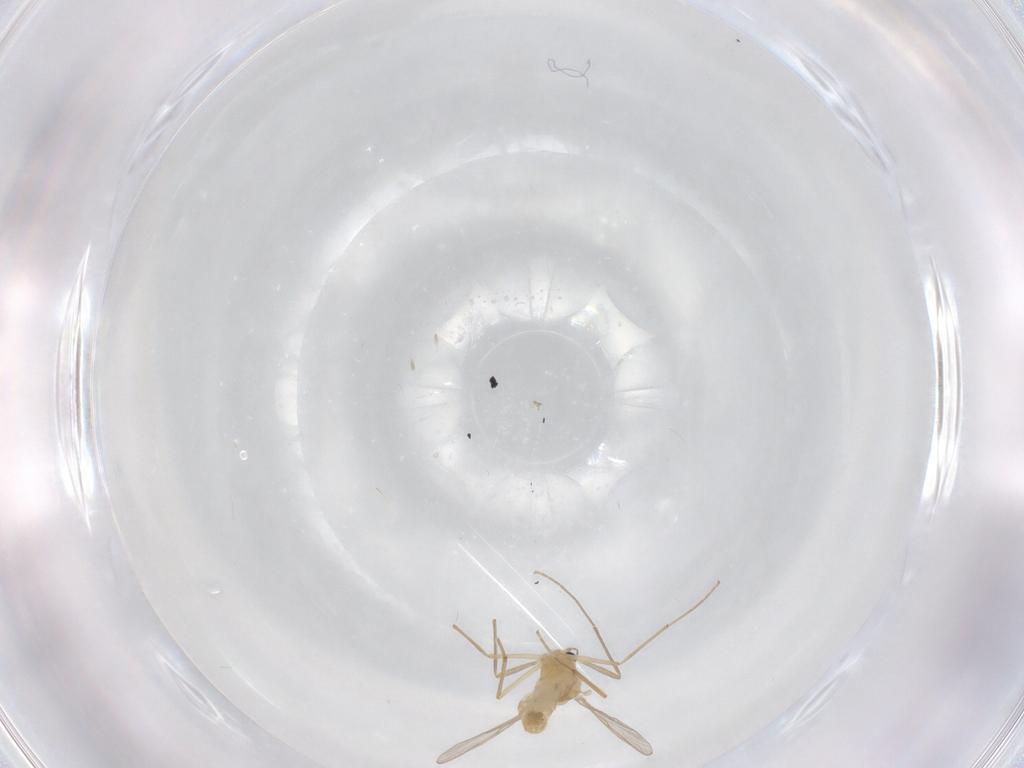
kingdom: Animalia
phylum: Arthropoda
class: Insecta
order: Diptera
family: Chironomidae
